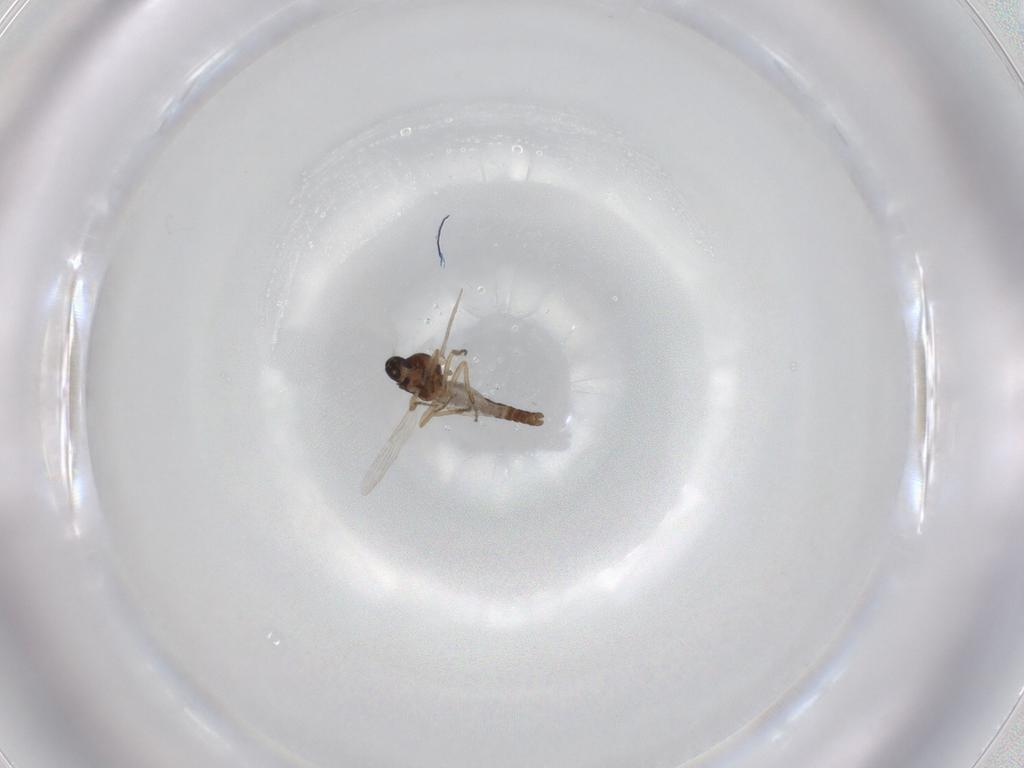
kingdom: Animalia
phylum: Arthropoda
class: Insecta
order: Diptera
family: Ceratopogonidae
